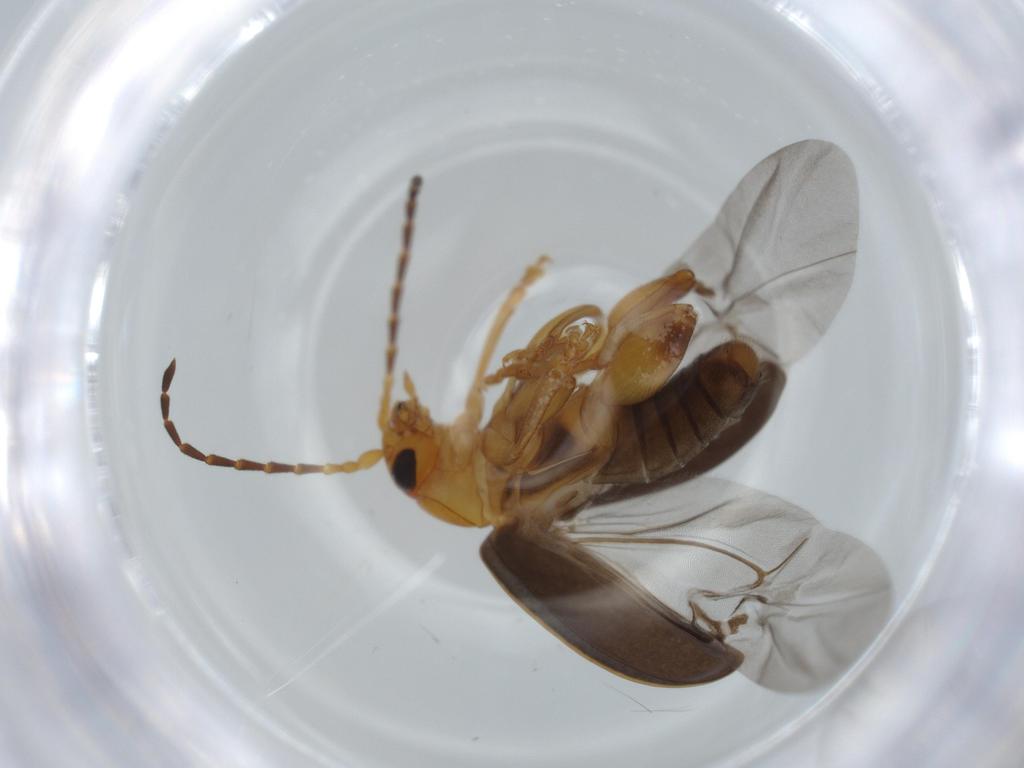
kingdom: Animalia
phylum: Arthropoda
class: Insecta
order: Coleoptera
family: Chrysomelidae
